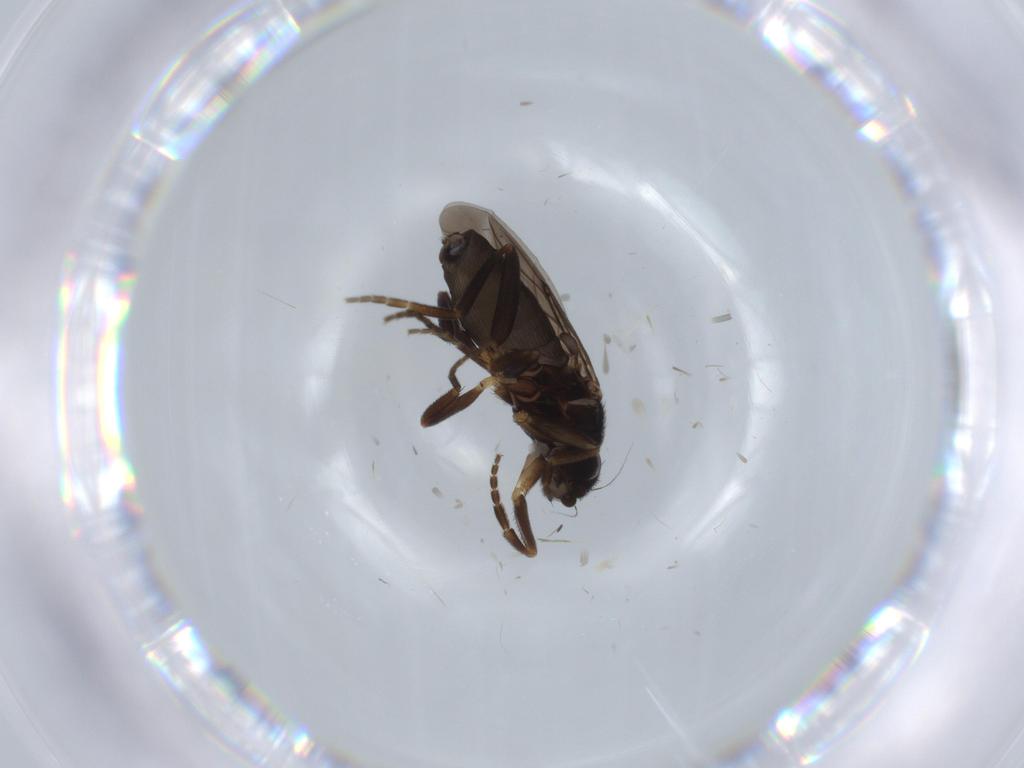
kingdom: Animalia
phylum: Arthropoda
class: Insecta
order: Diptera
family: Phoridae
